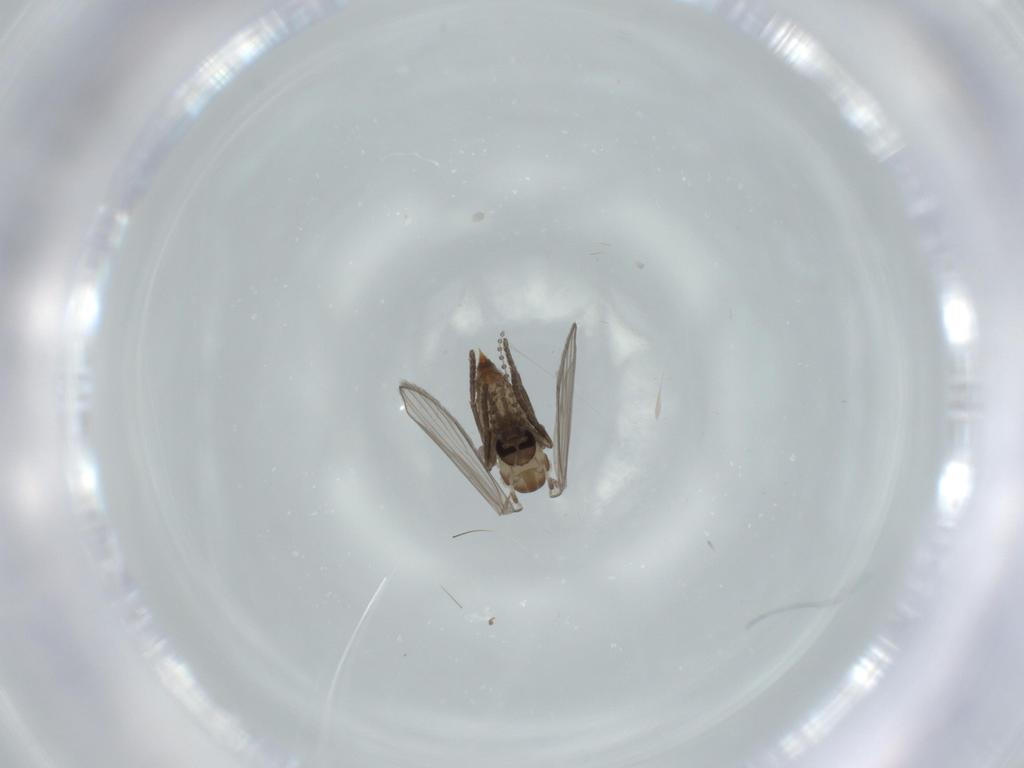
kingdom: Animalia
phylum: Arthropoda
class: Insecta
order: Diptera
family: Psychodidae
